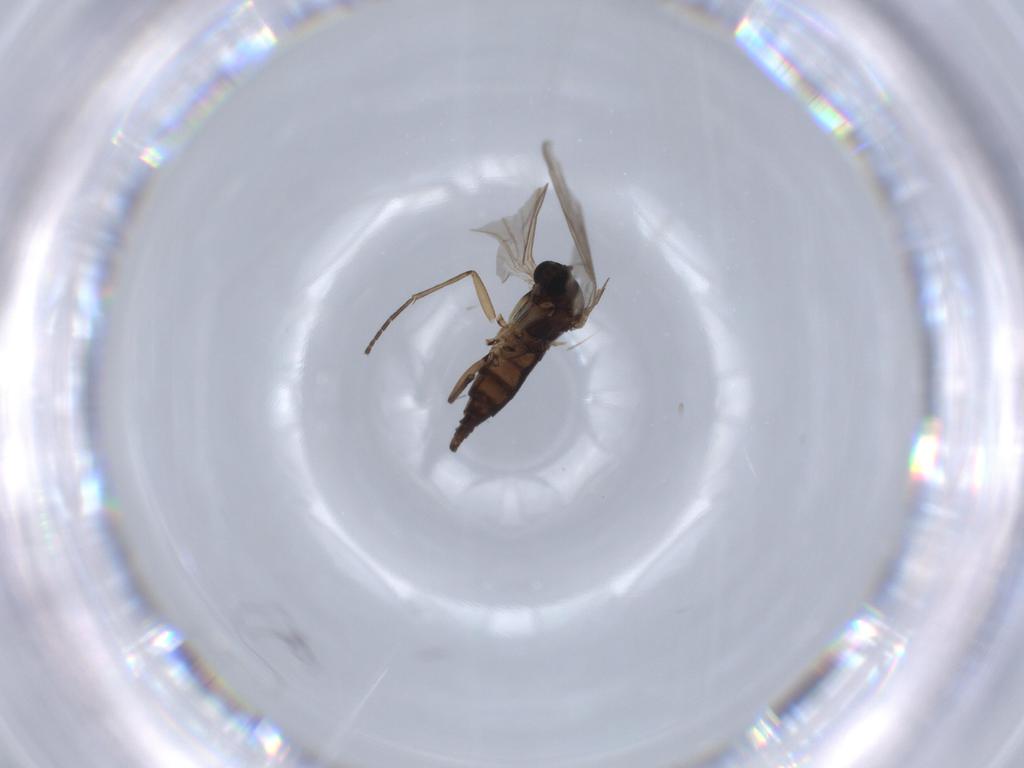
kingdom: Animalia
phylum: Arthropoda
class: Insecta
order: Diptera
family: Sciaridae
